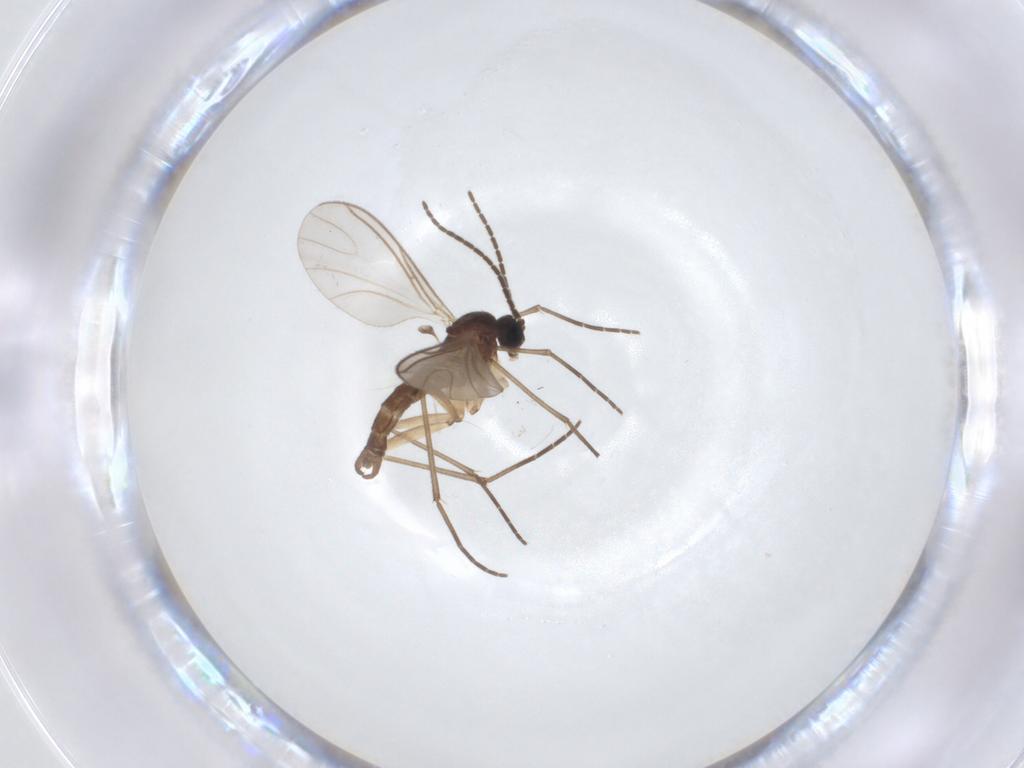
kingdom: Animalia
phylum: Arthropoda
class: Insecta
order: Diptera
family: Sciaridae
